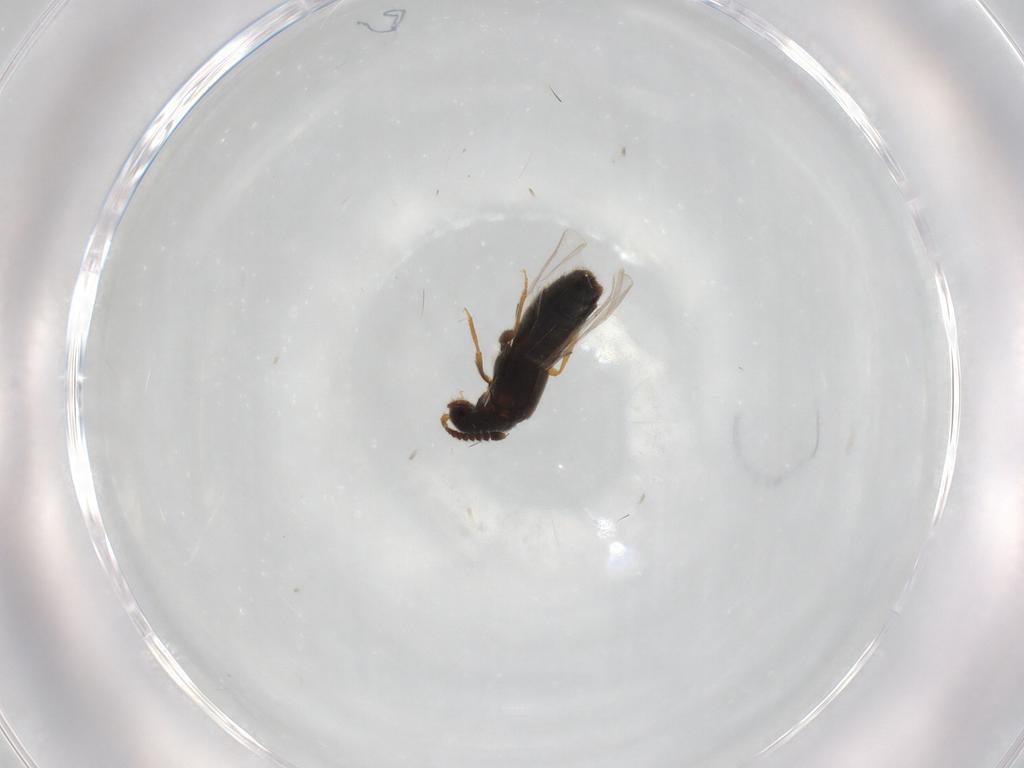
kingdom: Animalia
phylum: Arthropoda
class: Insecta
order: Coleoptera
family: Staphylinidae
